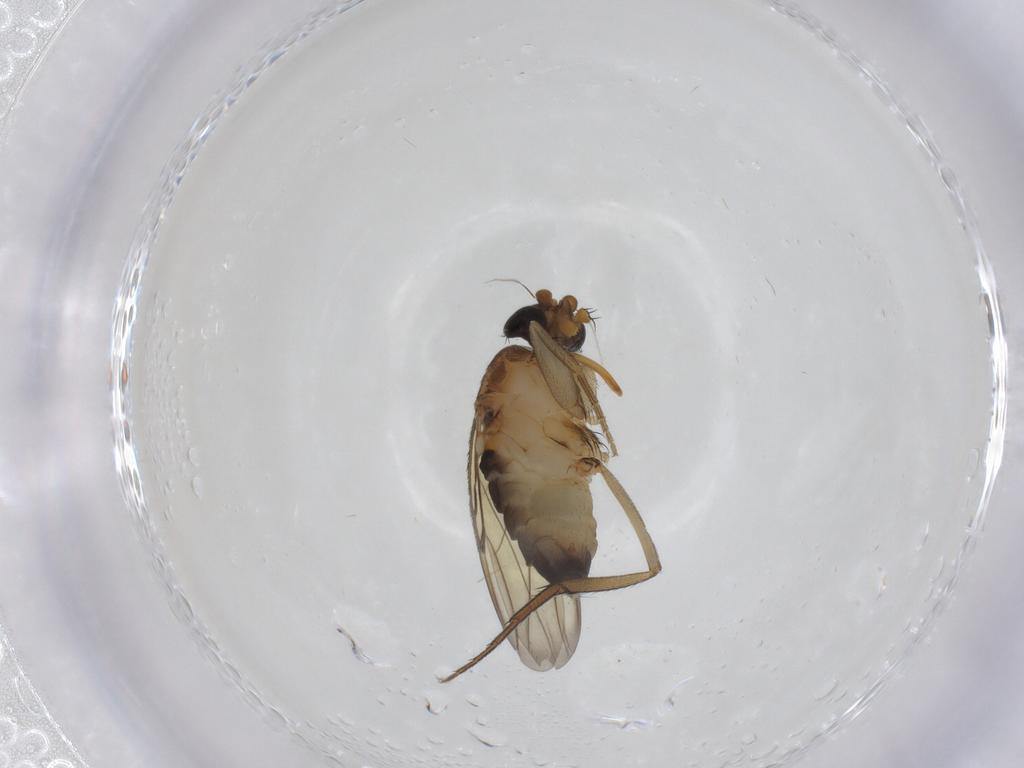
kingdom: Animalia
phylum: Arthropoda
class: Insecta
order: Diptera
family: Phoridae
